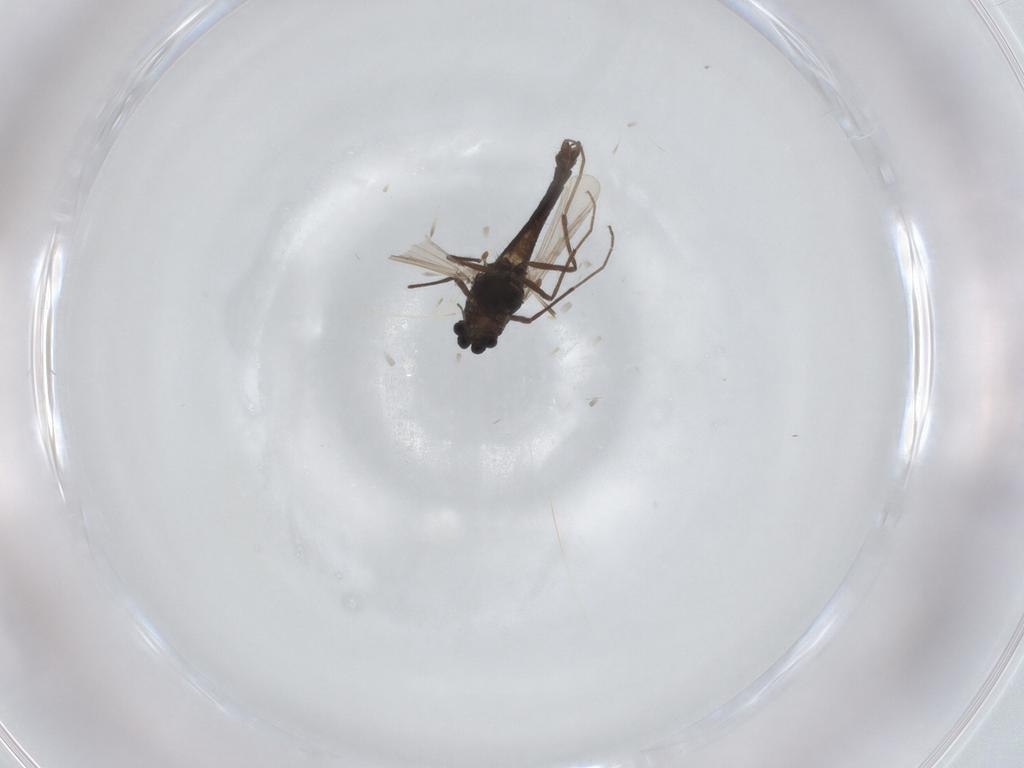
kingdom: Animalia
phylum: Arthropoda
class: Insecta
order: Diptera
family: Chironomidae
